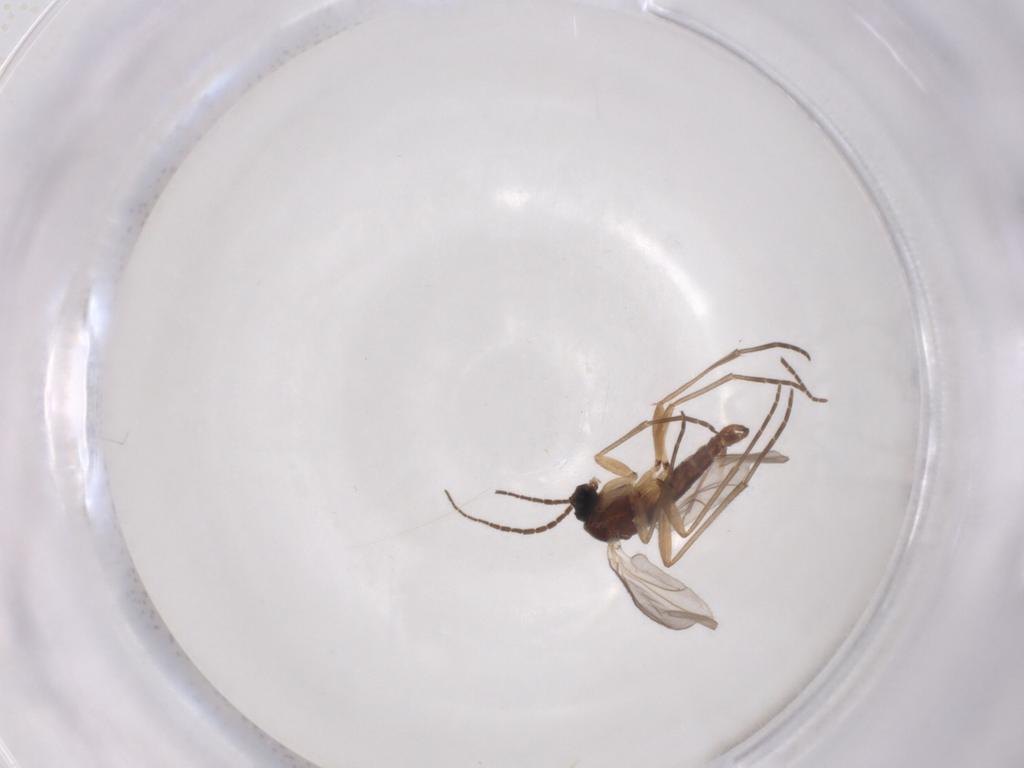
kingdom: Animalia
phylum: Arthropoda
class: Insecta
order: Diptera
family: Sciaridae
